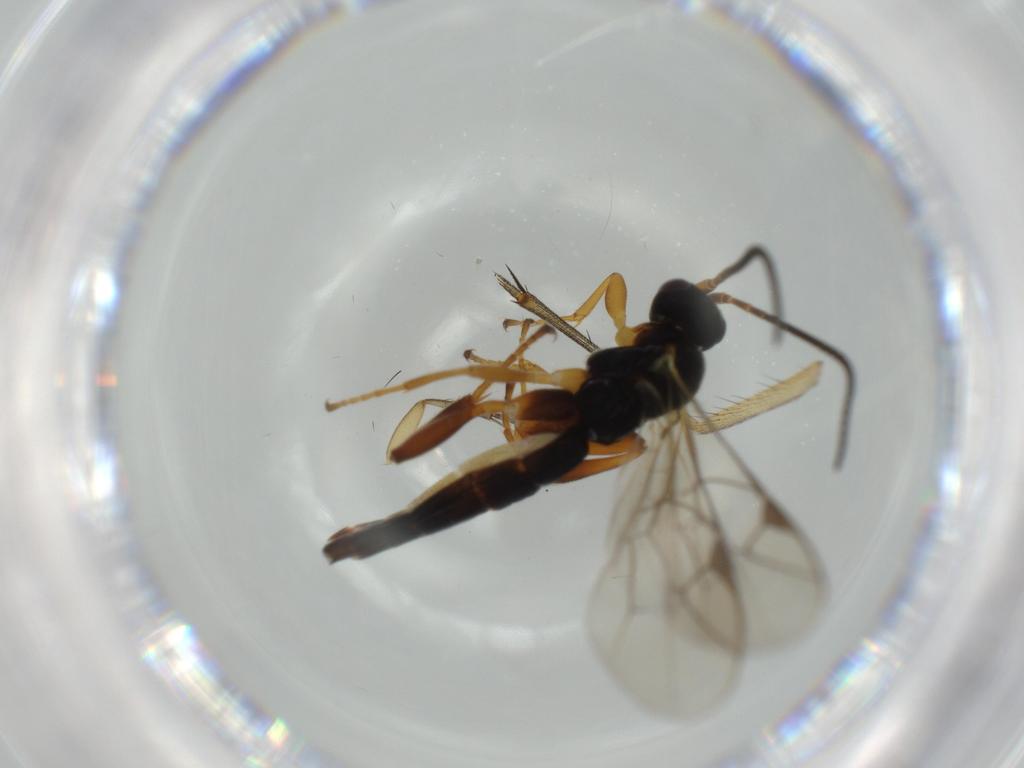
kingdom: Animalia
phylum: Arthropoda
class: Insecta
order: Hymenoptera
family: Ichneumonidae
